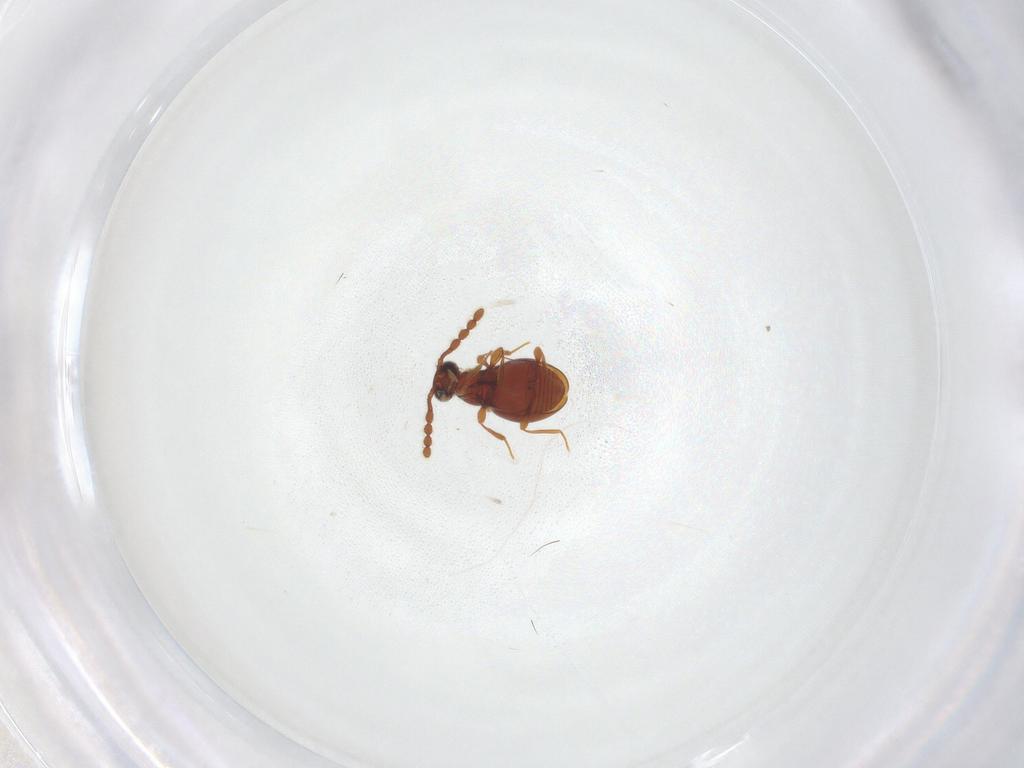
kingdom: Animalia
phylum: Arthropoda
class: Insecta
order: Coleoptera
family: Staphylinidae
